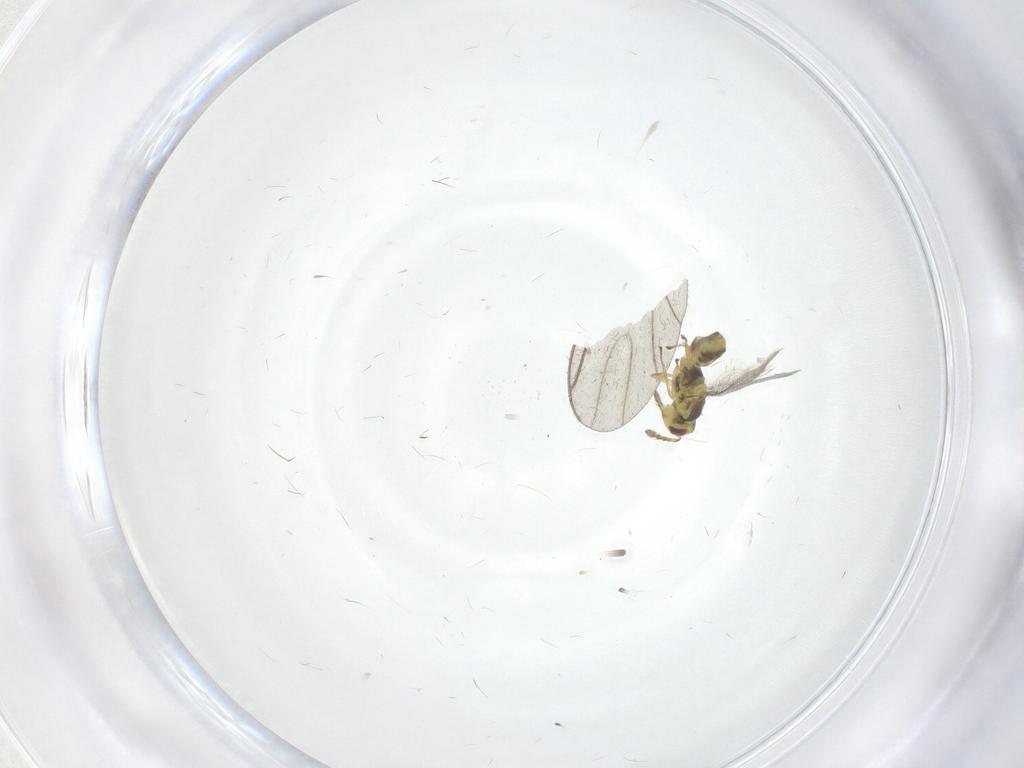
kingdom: Animalia
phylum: Arthropoda
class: Insecta
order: Hymenoptera
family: Eulophidae
